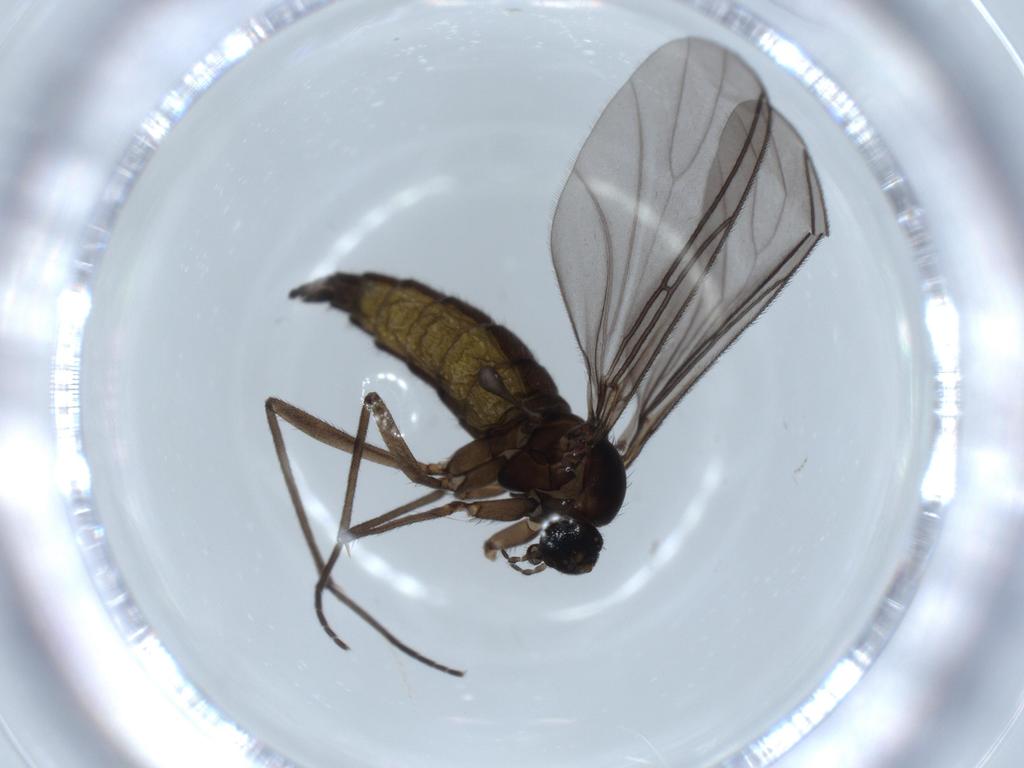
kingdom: Animalia
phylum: Arthropoda
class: Insecta
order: Diptera
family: Sciaridae
